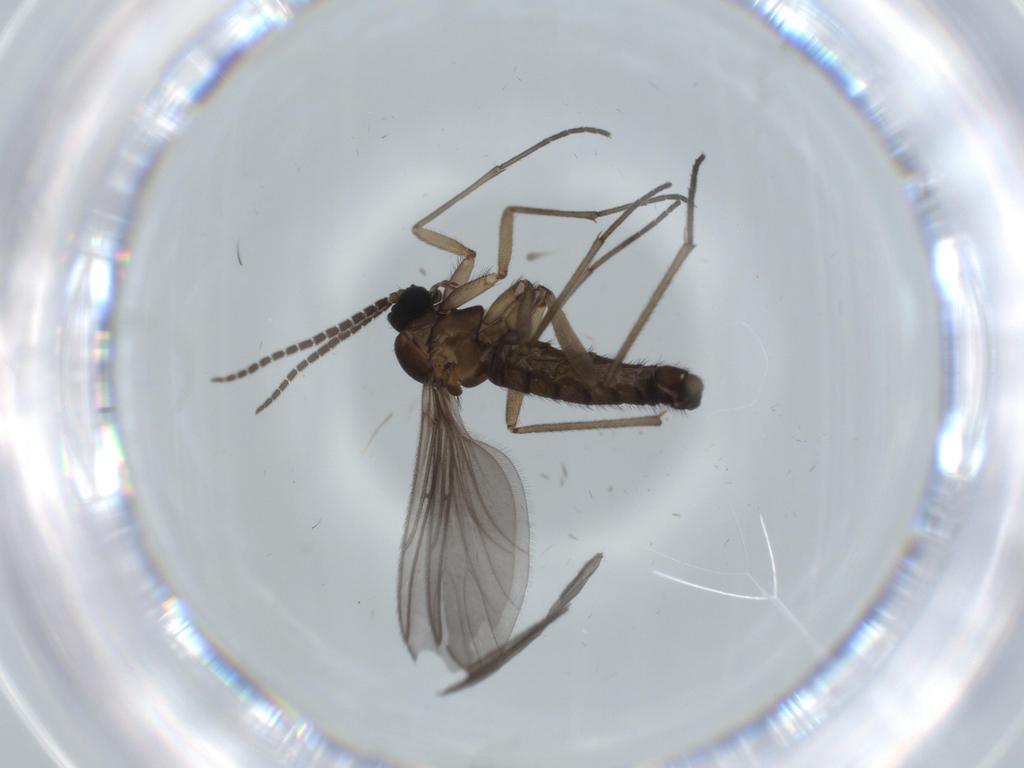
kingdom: Animalia
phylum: Arthropoda
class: Insecta
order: Diptera
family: Sciaridae
